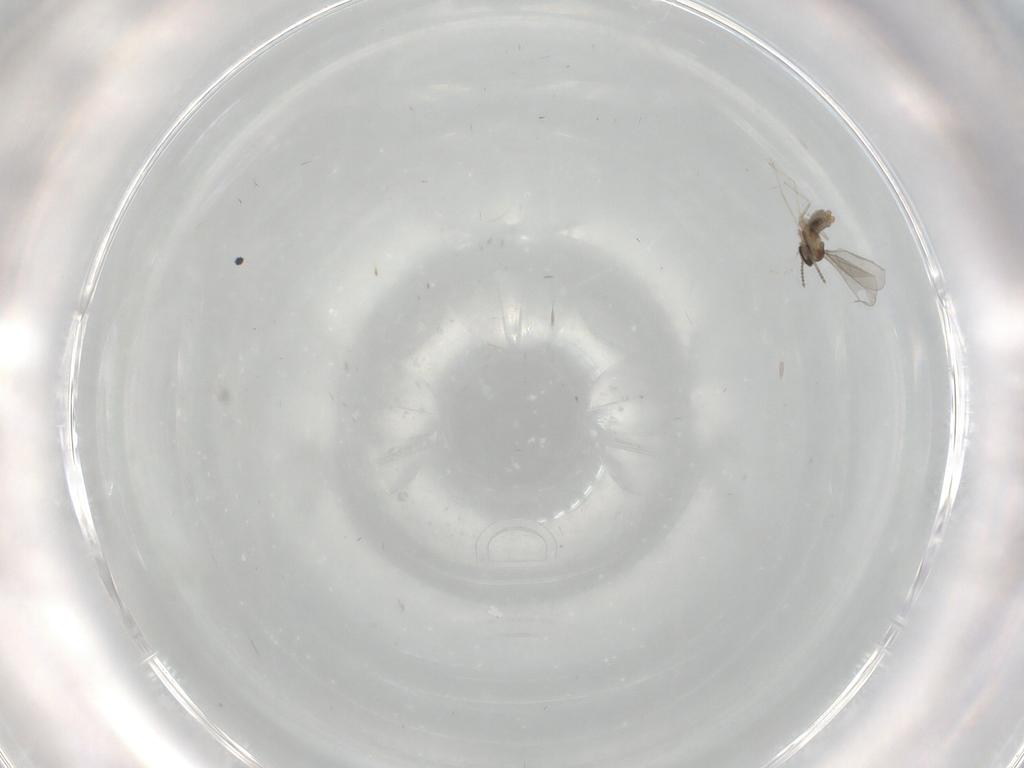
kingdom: Animalia
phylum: Arthropoda
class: Insecta
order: Diptera
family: Cecidomyiidae
